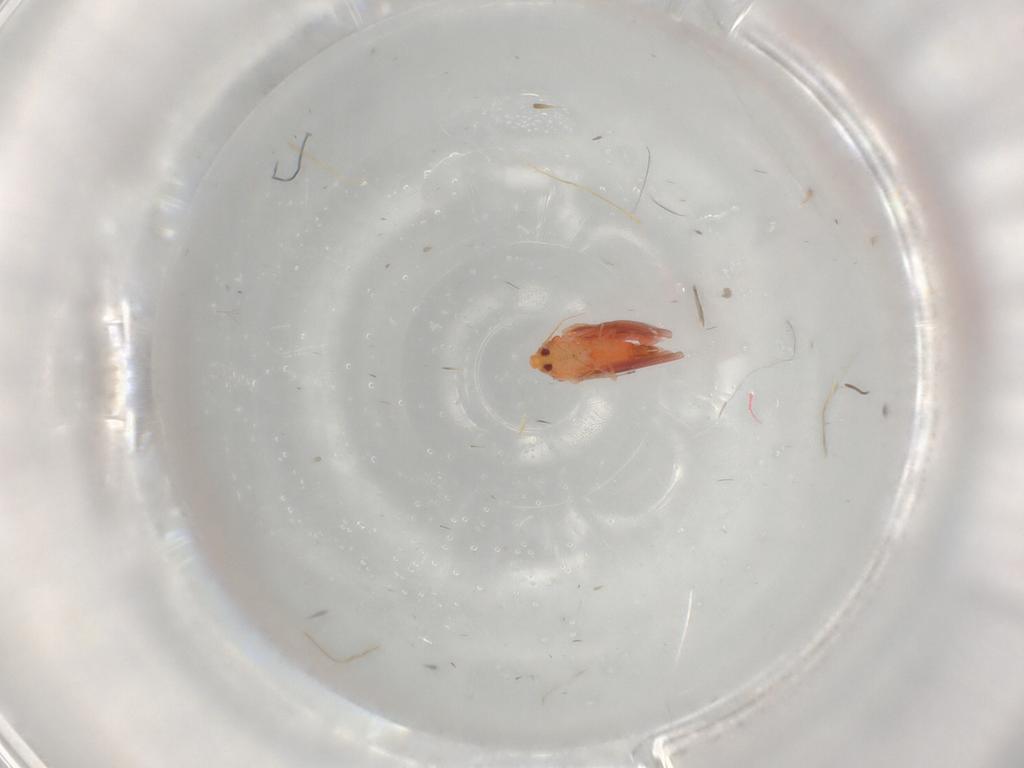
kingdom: Animalia
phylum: Arthropoda
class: Insecta
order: Hemiptera
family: Aleyrodidae
